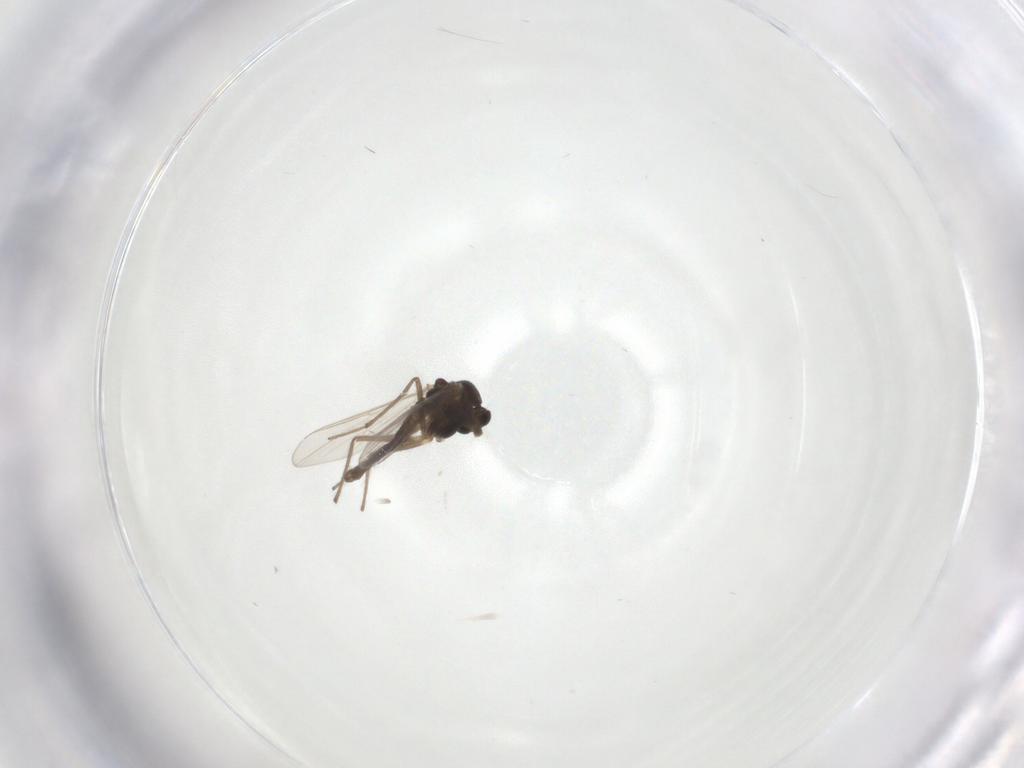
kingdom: Animalia
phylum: Arthropoda
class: Insecta
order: Diptera
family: Chironomidae
